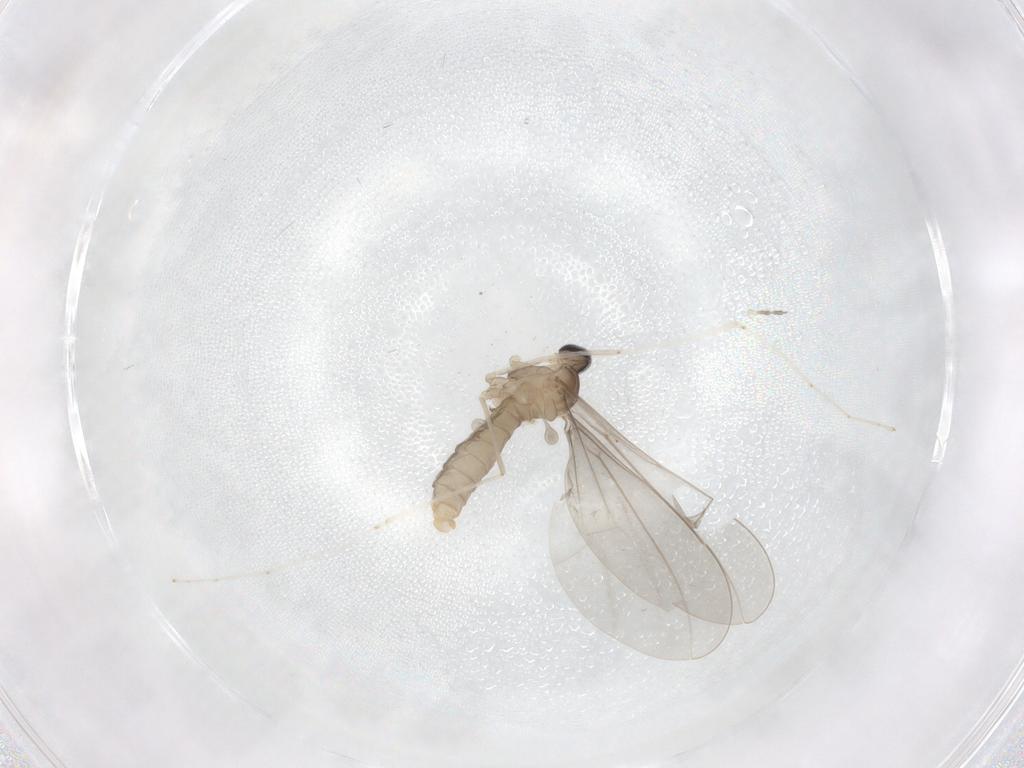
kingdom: Animalia
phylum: Arthropoda
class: Insecta
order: Diptera
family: Cecidomyiidae
